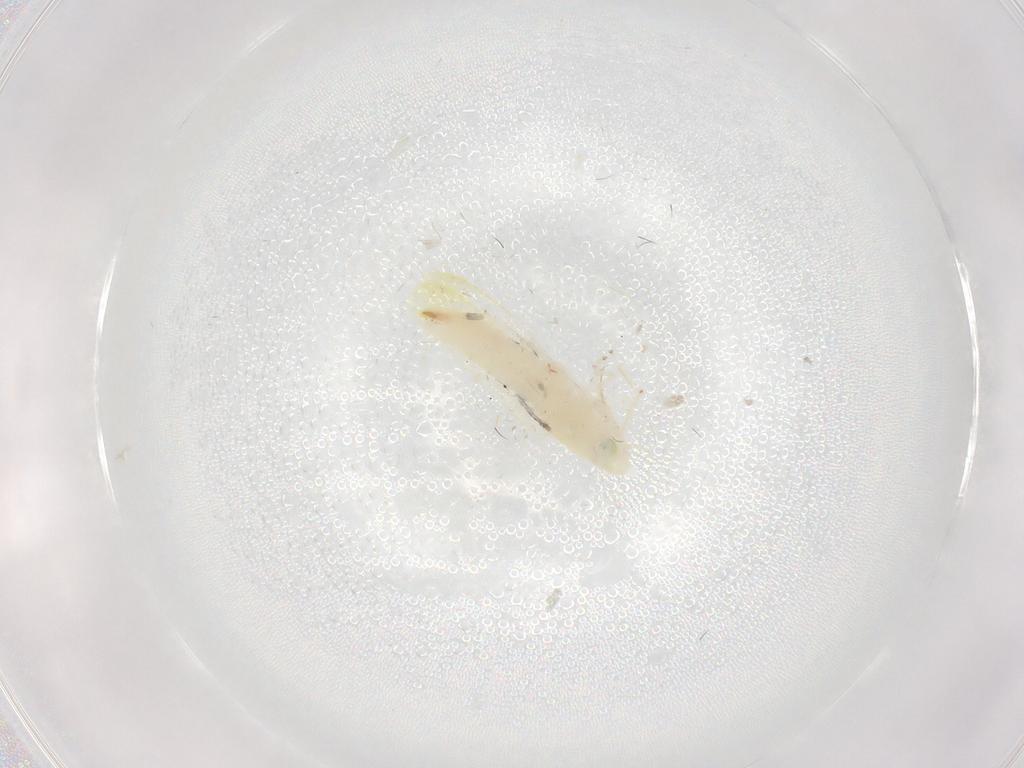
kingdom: Animalia
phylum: Arthropoda
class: Insecta
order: Hemiptera
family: Cicadellidae
